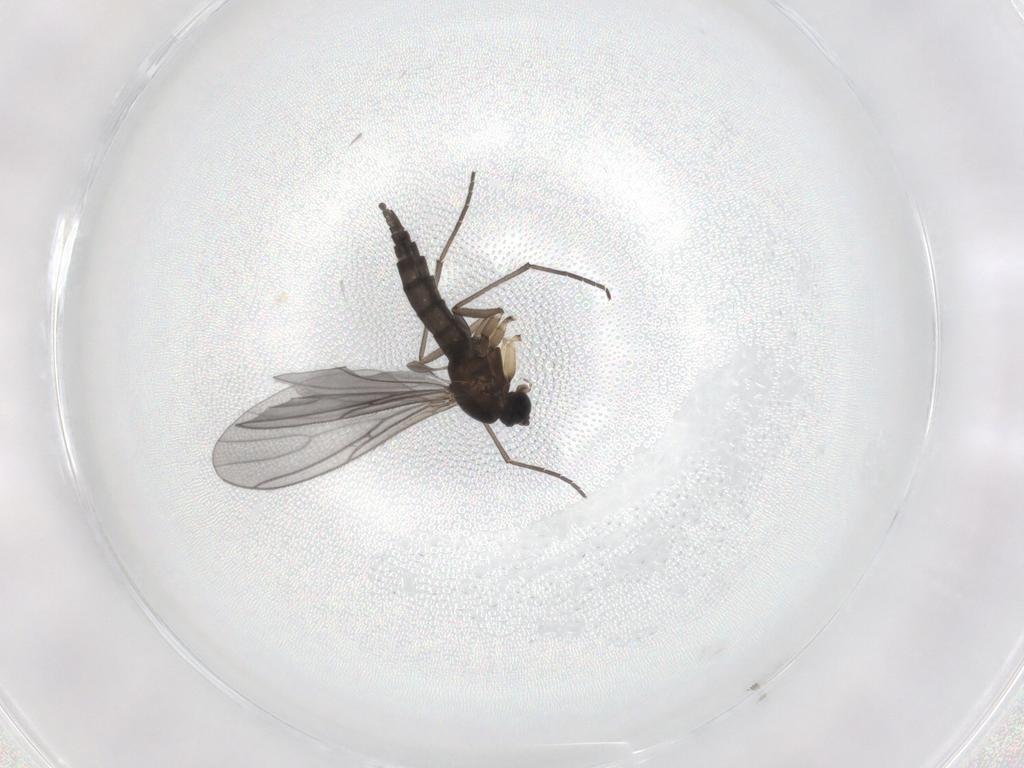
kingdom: Animalia
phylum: Arthropoda
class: Insecta
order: Diptera
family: Sciaridae
